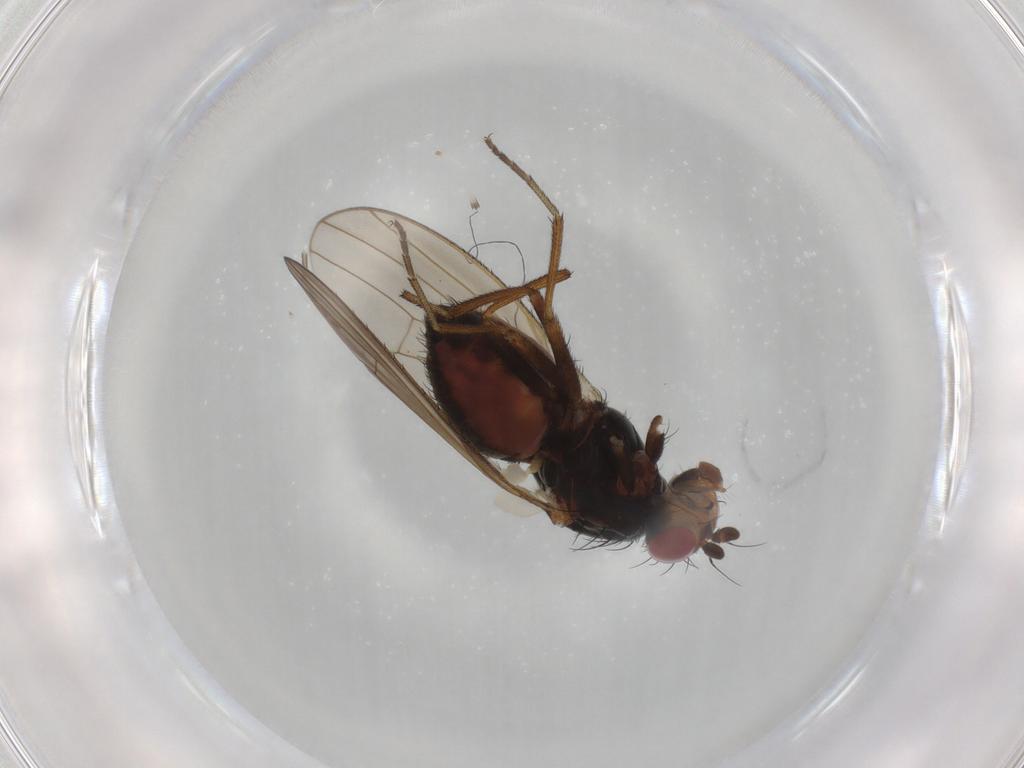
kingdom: Animalia
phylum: Arthropoda
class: Insecta
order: Diptera
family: Heleomyzidae
